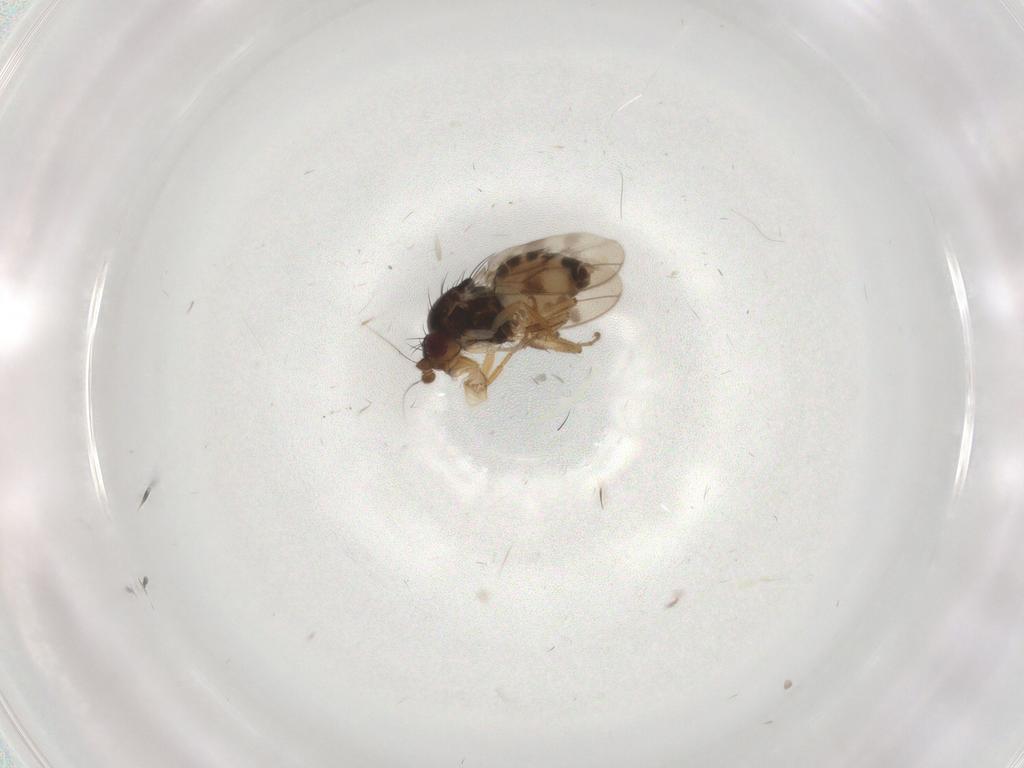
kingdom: Animalia
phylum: Arthropoda
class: Insecta
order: Diptera
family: Sphaeroceridae
